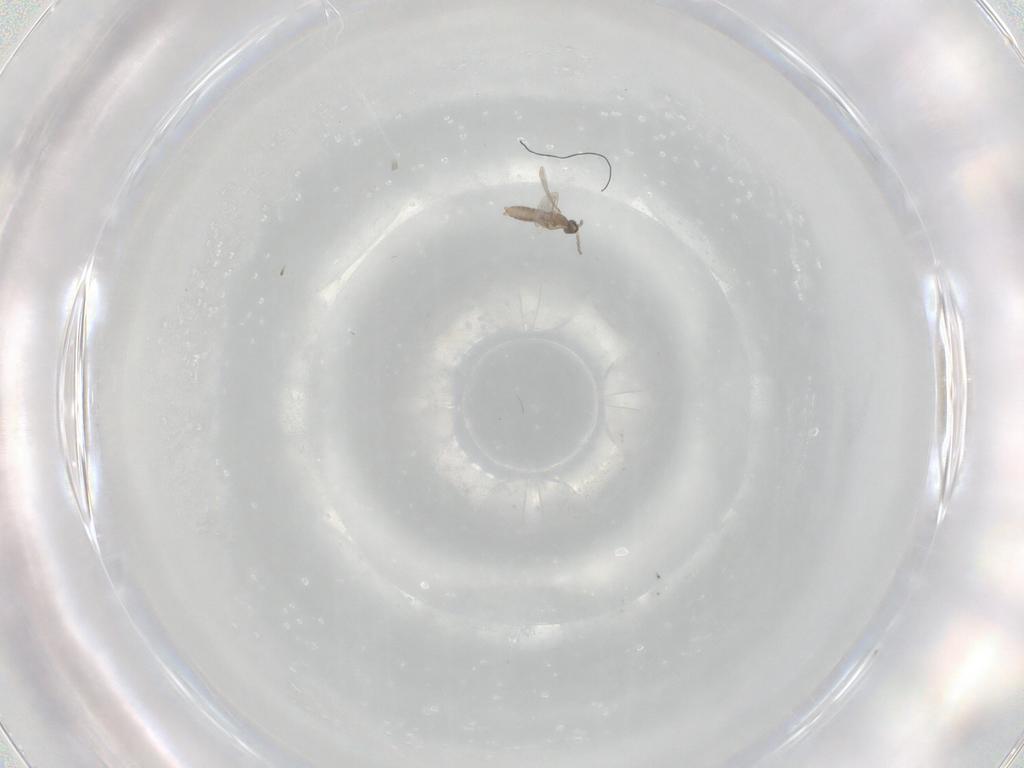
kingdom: Animalia
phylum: Arthropoda
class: Insecta
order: Diptera
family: Cecidomyiidae
